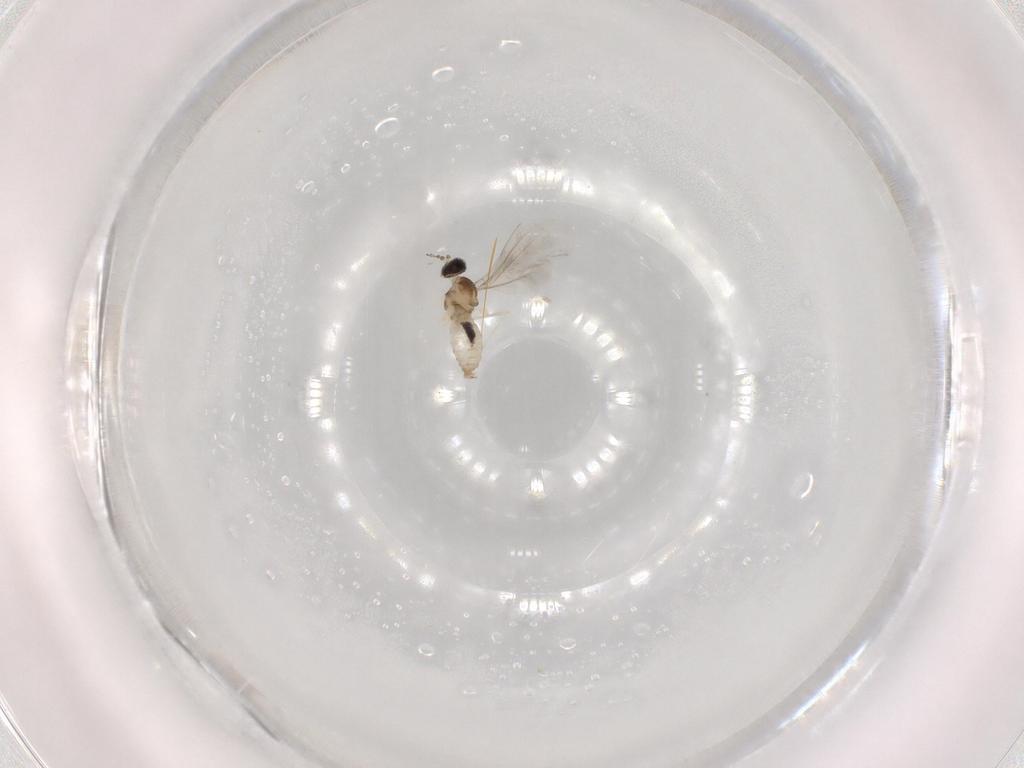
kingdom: Animalia
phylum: Arthropoda
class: Insecta
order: Diptera
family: Cecidomyiidae
